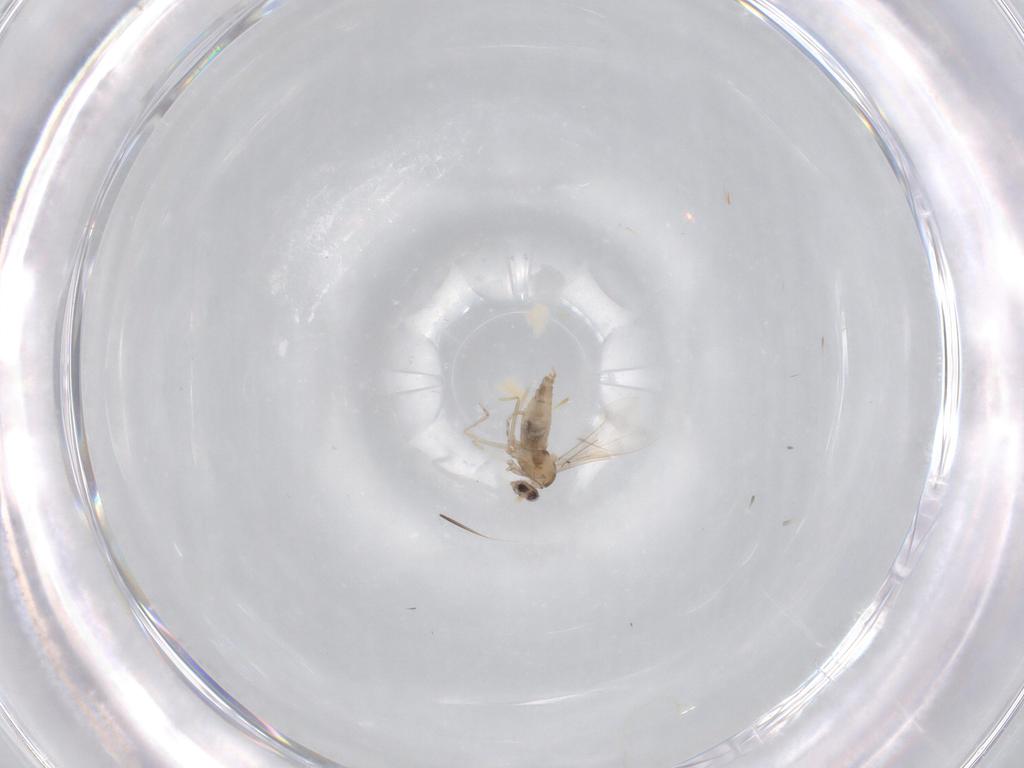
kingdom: Animalia
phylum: Arthropoda
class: Insecta
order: Diptera
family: Cecidomyiidae
